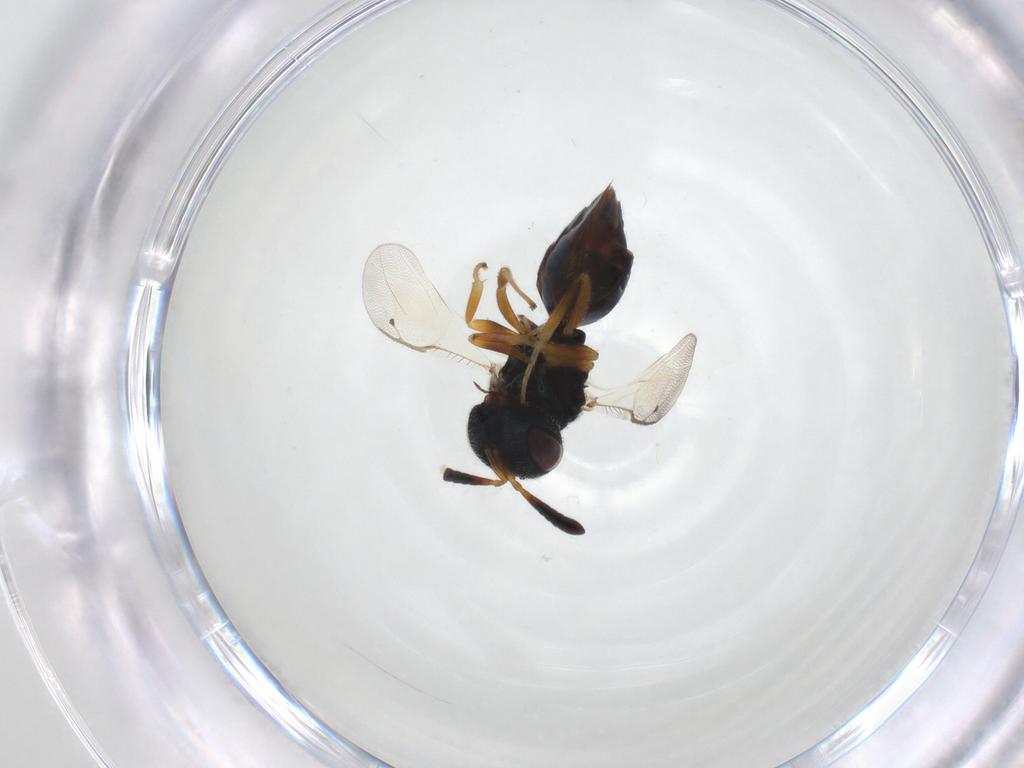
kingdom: Animalia
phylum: Arthropoda
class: Insecta
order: Hymenoptera
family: Pteromalidae
